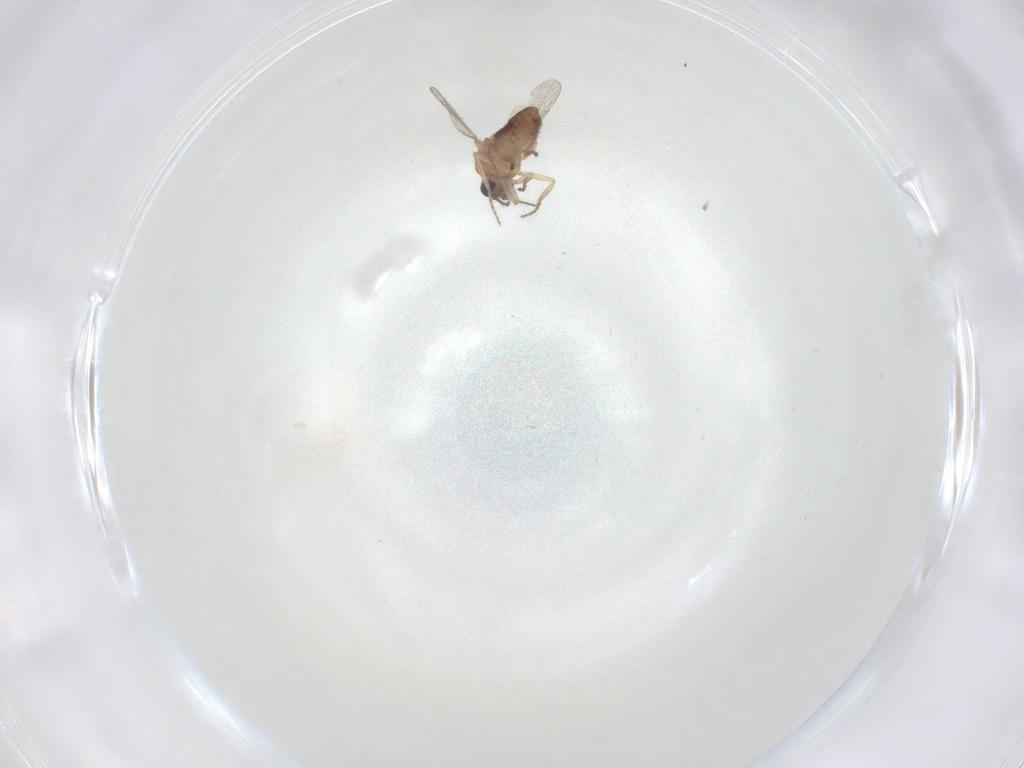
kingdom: Animalia
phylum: Arthropoda
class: Insecta
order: Diptera
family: Ceratopogonidae
